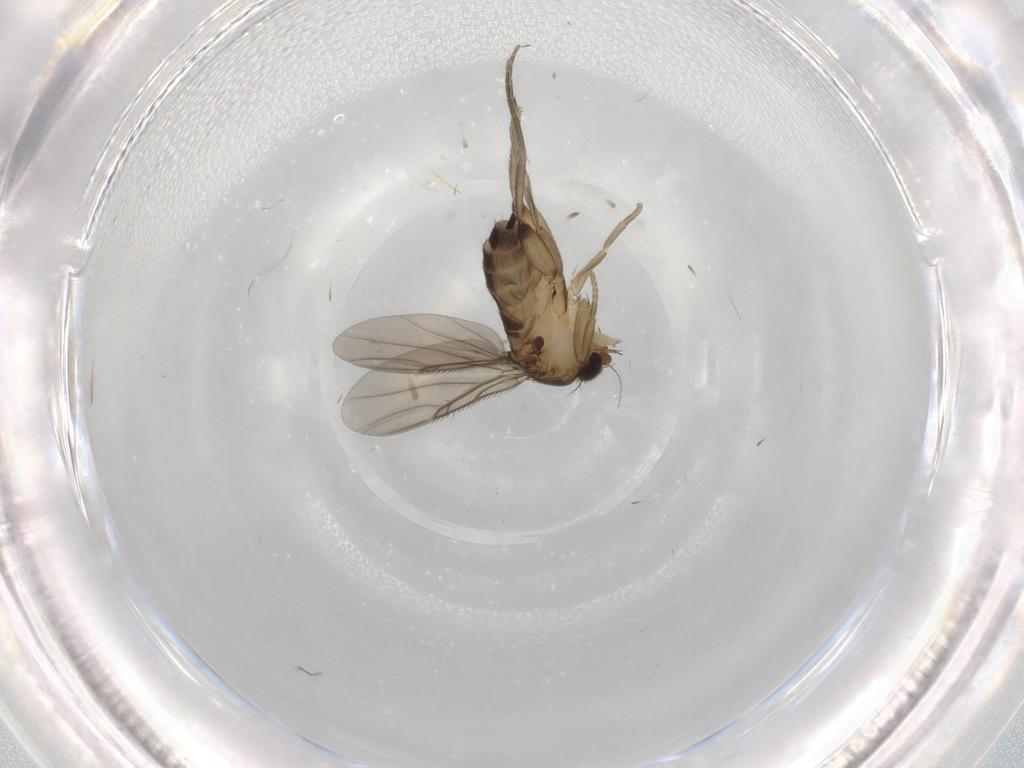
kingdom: Animalia
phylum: Arthropoda
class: Insecta
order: Diptera
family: Phoridae
